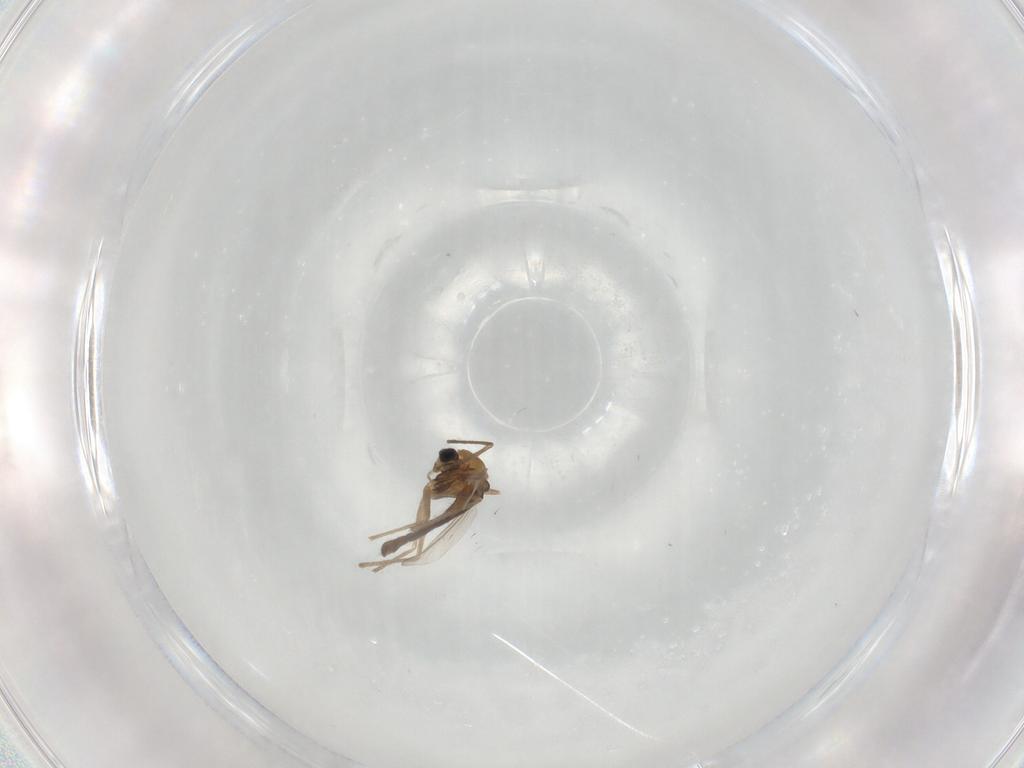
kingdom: Animalia
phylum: Arthropoda
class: Insecta
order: Diptera
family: Chironomidae
